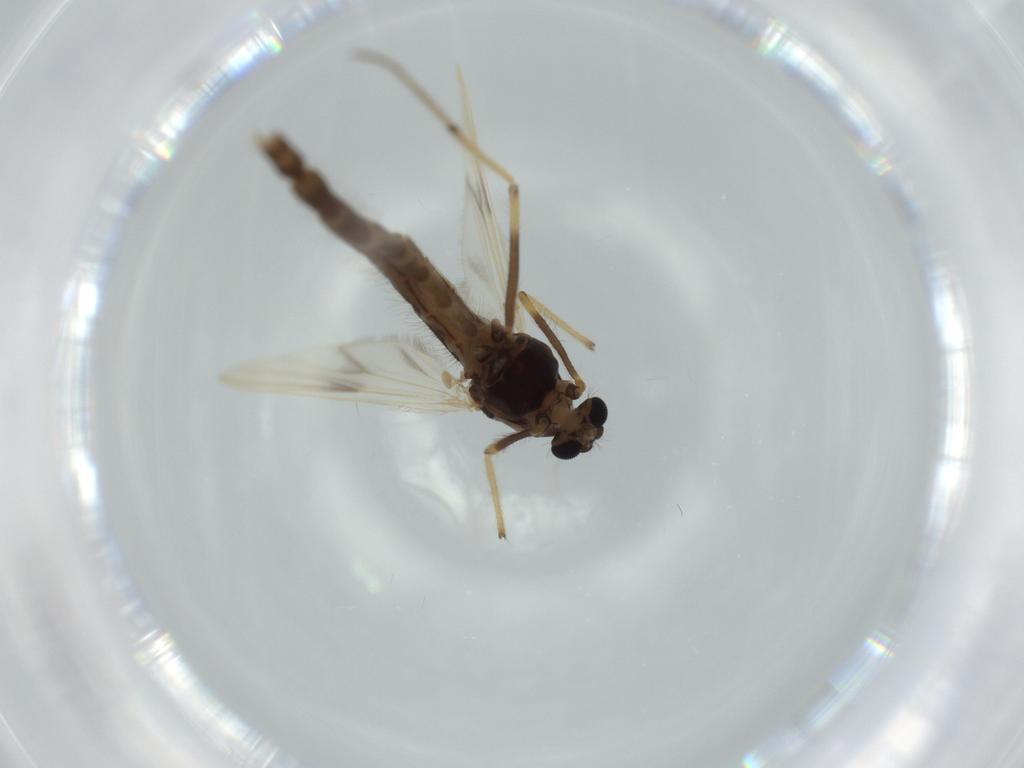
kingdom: Animalia
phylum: Arthropoda
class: Insecta
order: Diptera
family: Chironomidae
